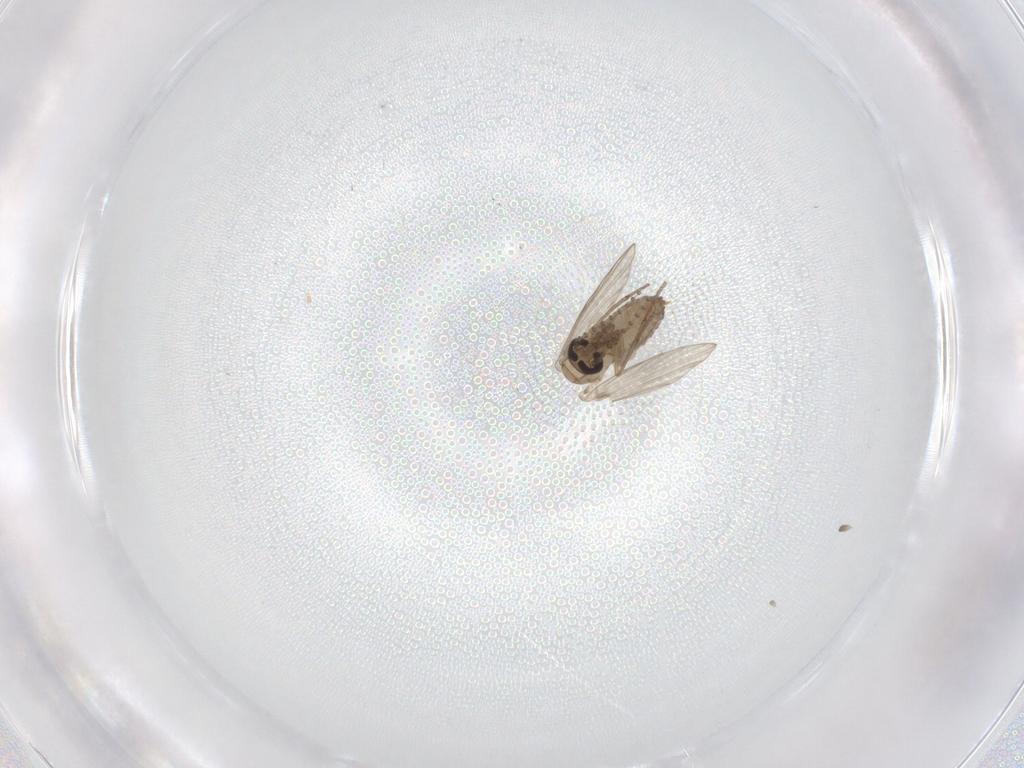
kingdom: Animalia
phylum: Arthropoda
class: Insecta
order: Diptera
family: Psychodidae
